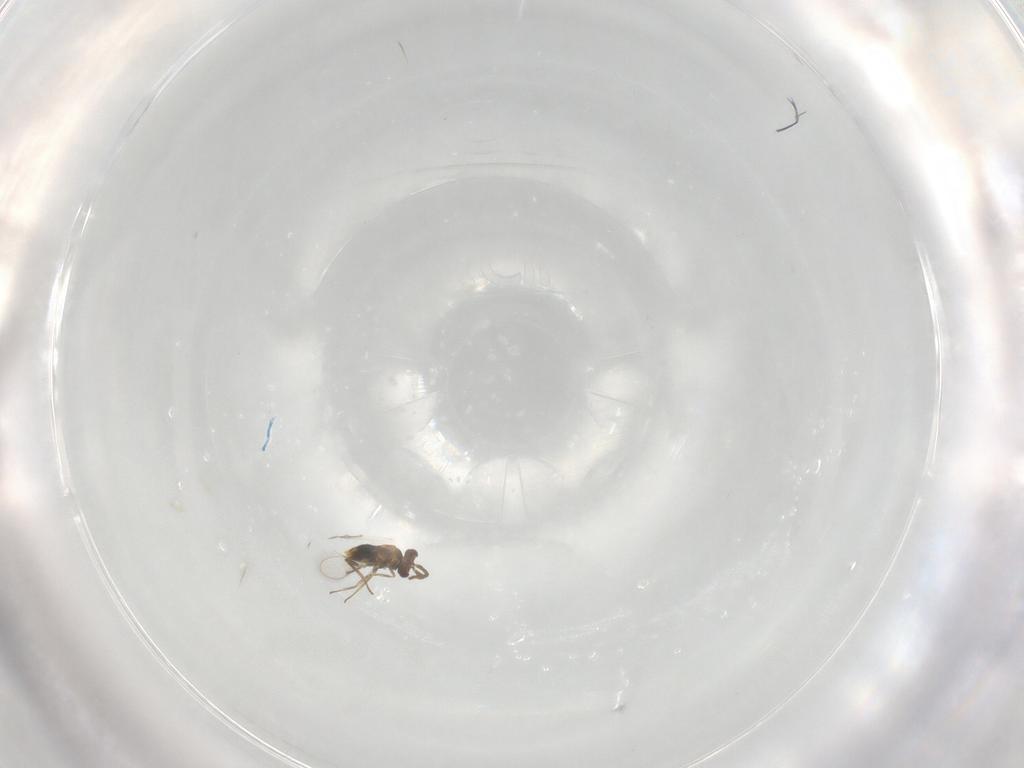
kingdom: Animalia
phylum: Arthropoda
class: Insecta
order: Hymenoptera
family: Aphelinidae
